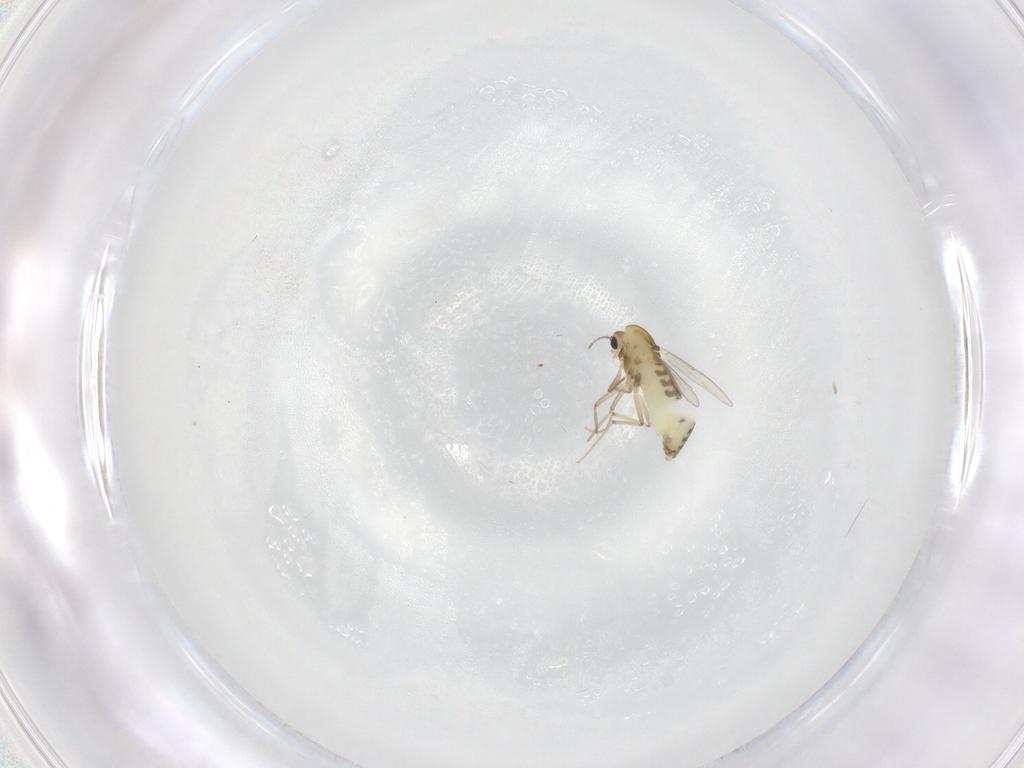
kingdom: Animalia
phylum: Arthropoda
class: Insecta
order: Diptera
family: Chironomidae
